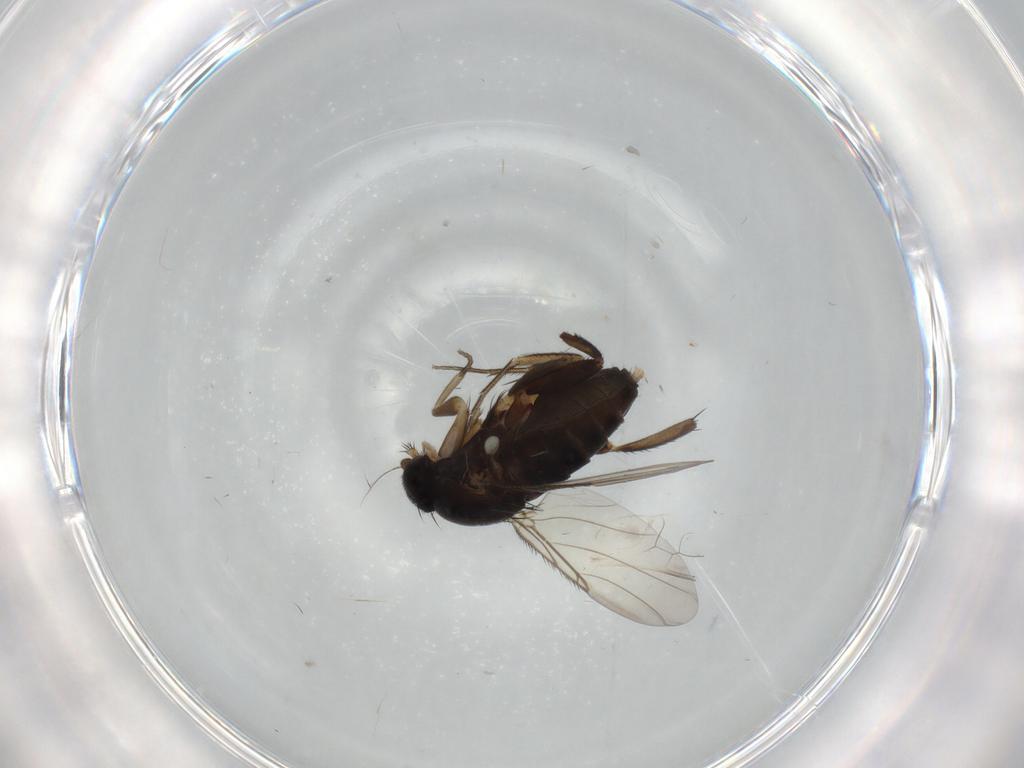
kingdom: Animalia
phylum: Arthropoda
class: Insecta
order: Diptera
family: Phoridae
